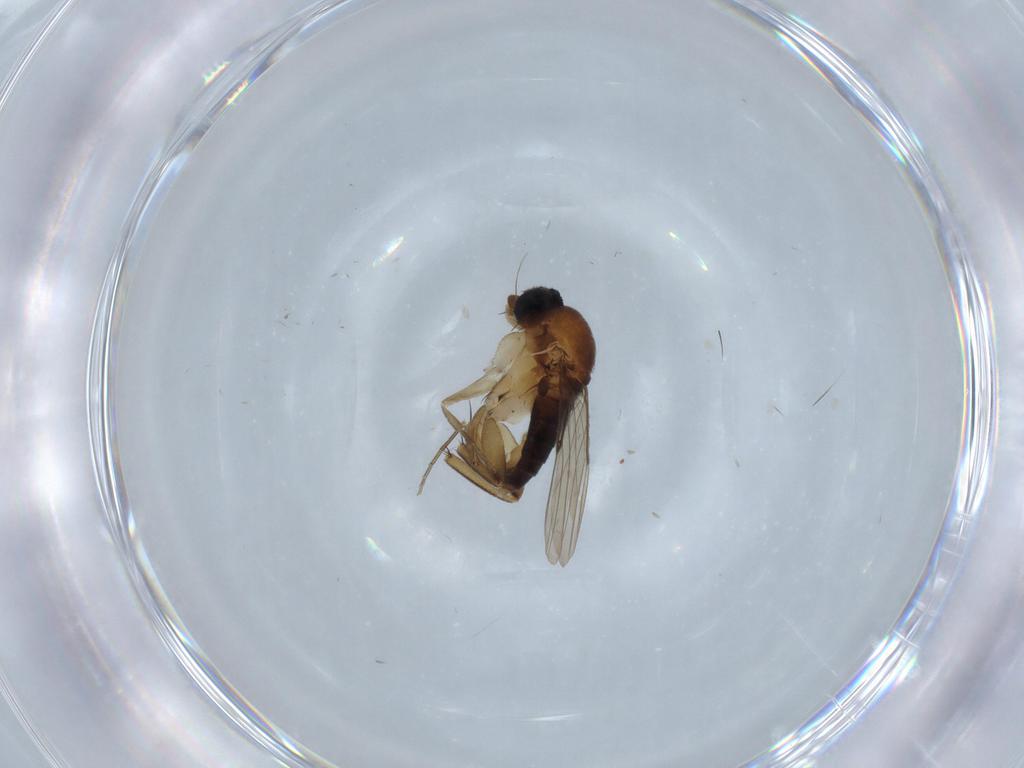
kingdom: Animalia
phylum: Arthropoda
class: Insecta
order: Diptera
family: Phoridae
